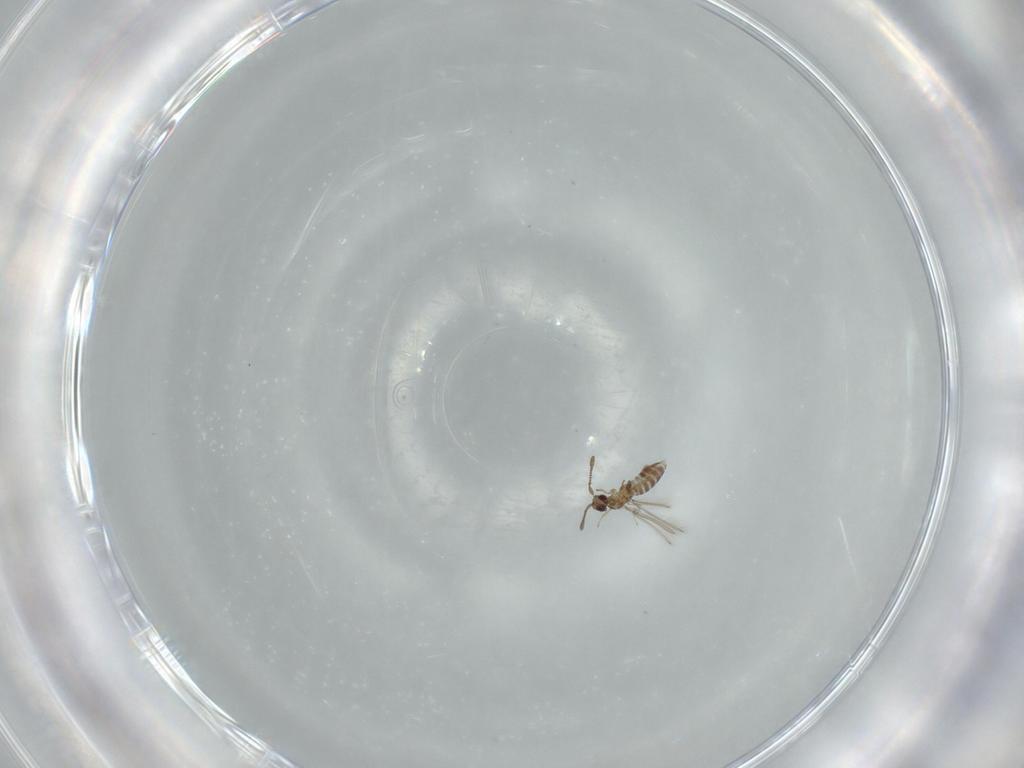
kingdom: Animalia
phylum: Arthropoda
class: Insecta
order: Hymenoptera
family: Mymaridae
